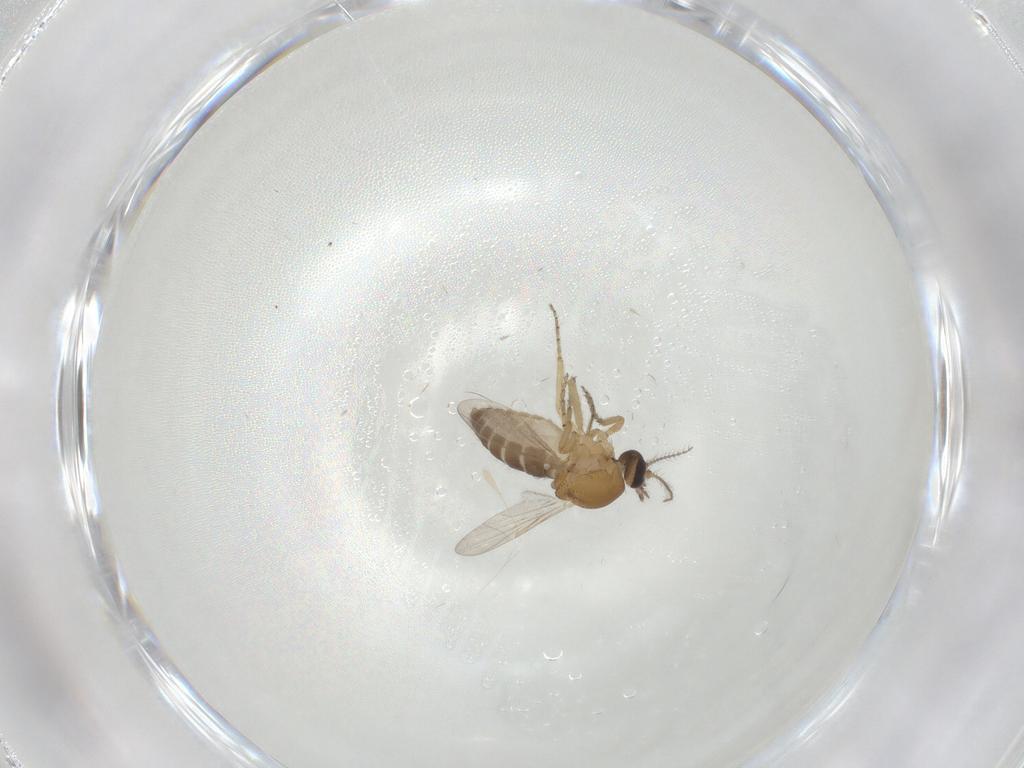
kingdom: Animalia
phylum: Arthropoda
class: Insecta
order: Diptera
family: Ceratopogonidae
